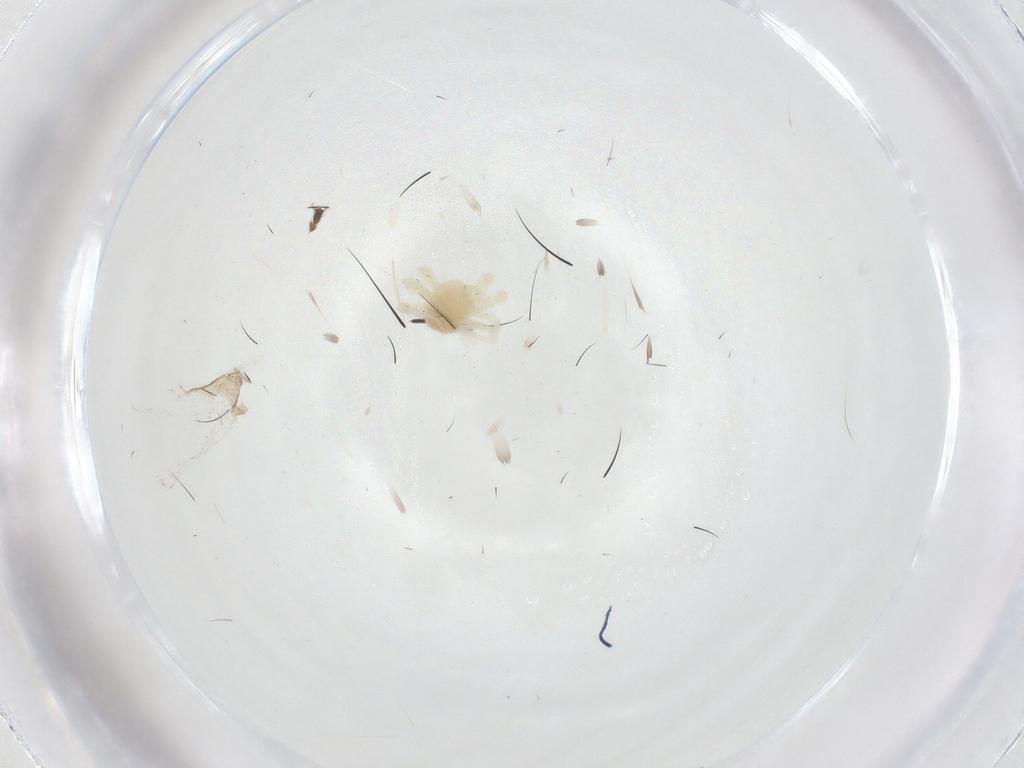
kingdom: Animalia
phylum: Arthropoda
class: Arachnida
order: Trombidiformes
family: Anystidae
